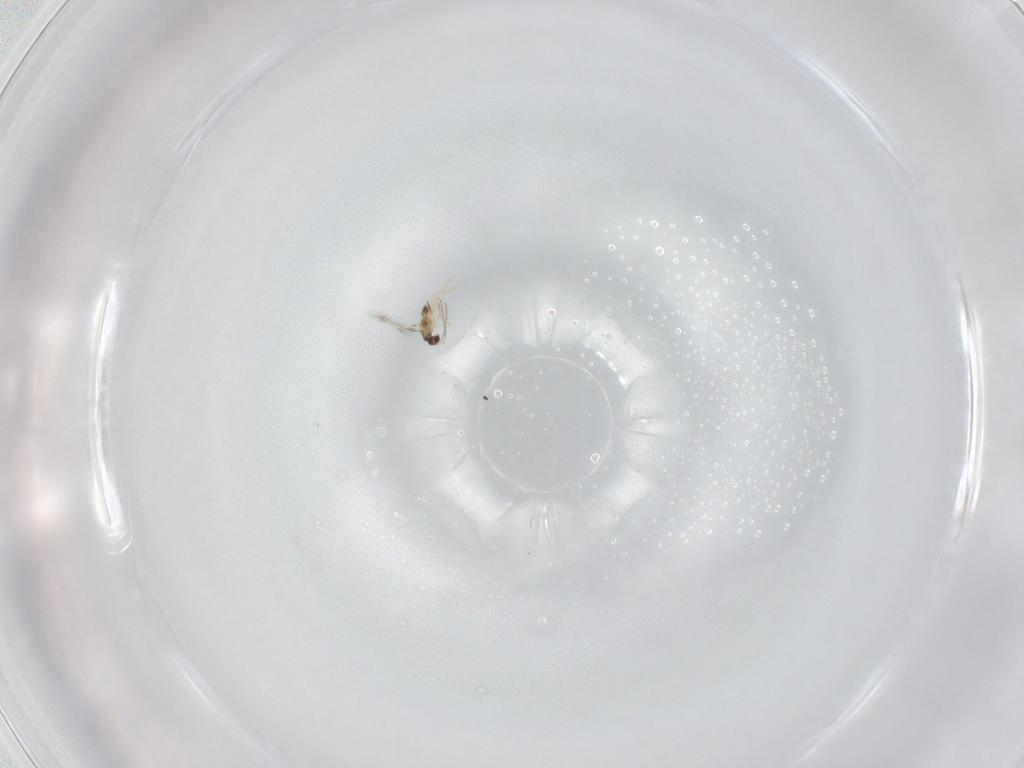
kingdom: Animalia
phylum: Arthropoda
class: Insecta
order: Hymenoptera
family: Mymaridae
